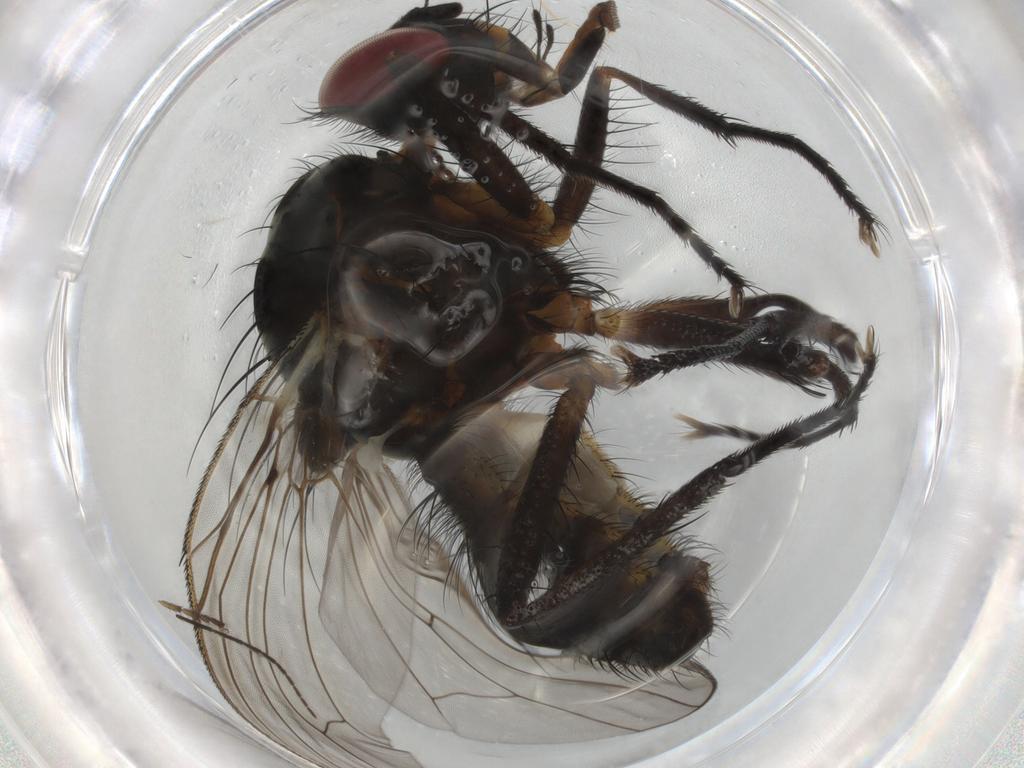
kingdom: Animalia
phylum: Arthropoda
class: Insecta
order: Diptera
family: Anthomyiidae
